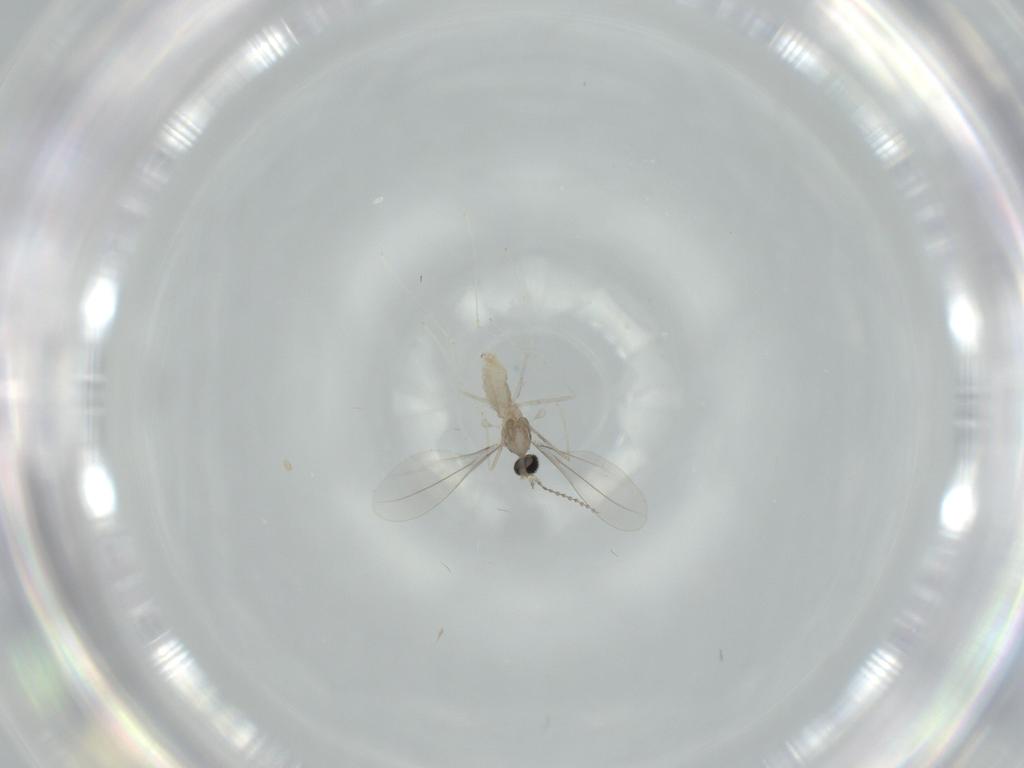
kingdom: Animalia
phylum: Arthropoda
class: Insecta
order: Diptera
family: Cecidomyiidae
